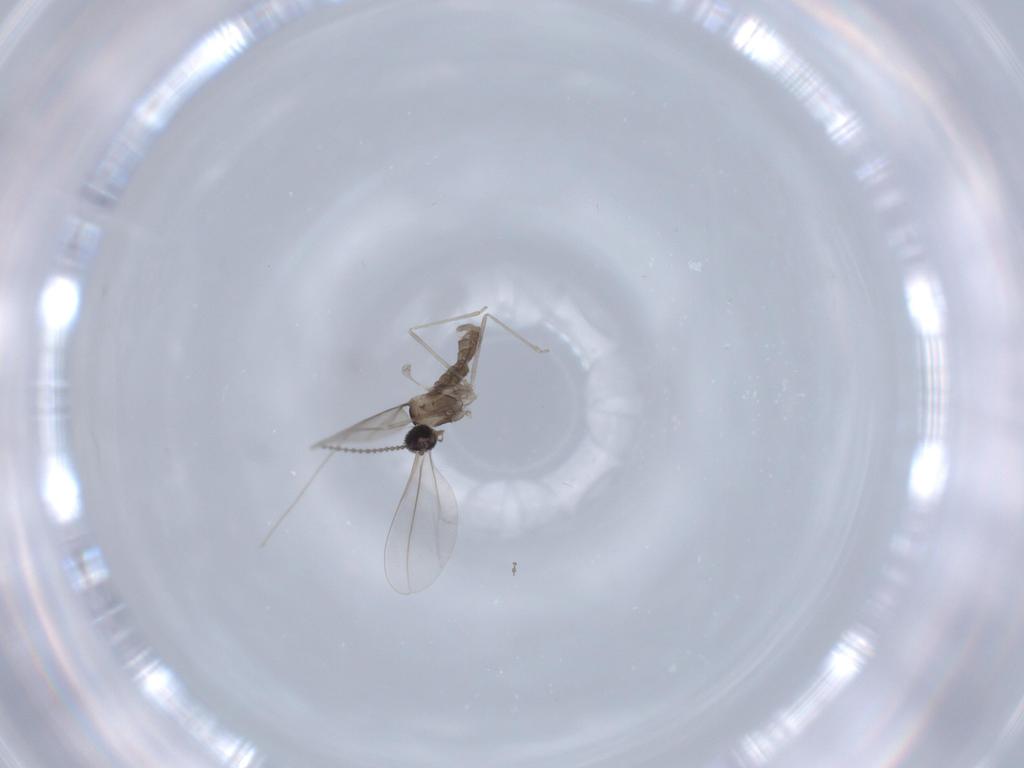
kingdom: Animalia
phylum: Arthropoda
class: Insecta
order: Diptera
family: Cecidomyiidae
